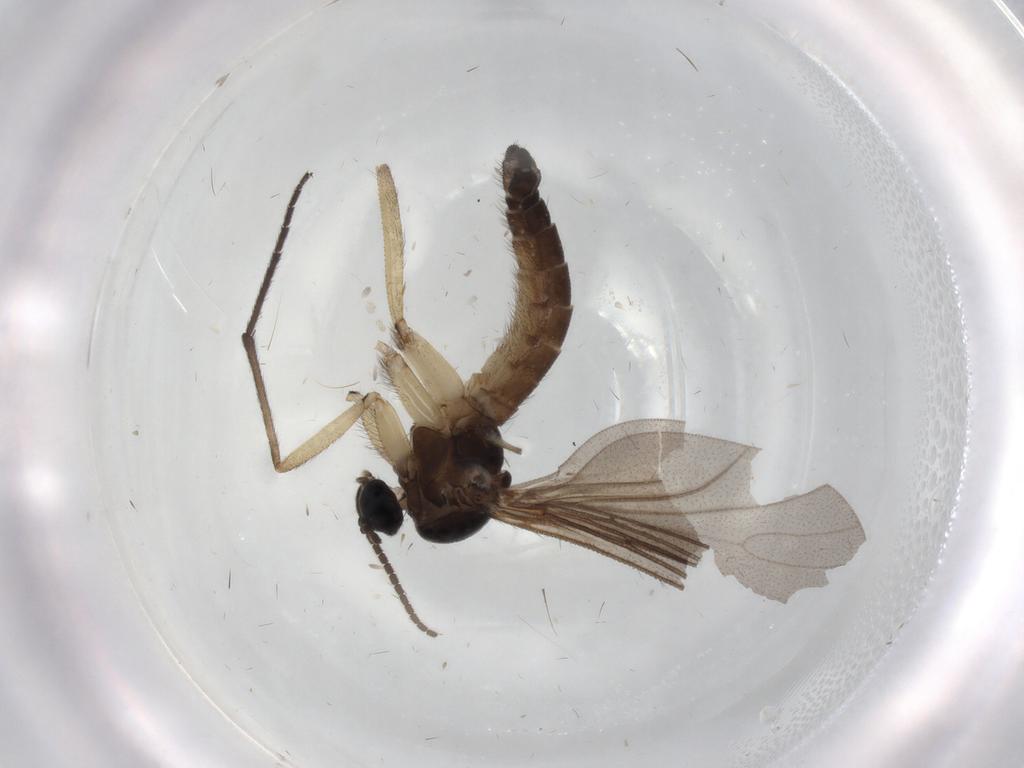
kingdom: Animalia
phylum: Arthropoda
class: Insecta
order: Diptera
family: Sciaridae
